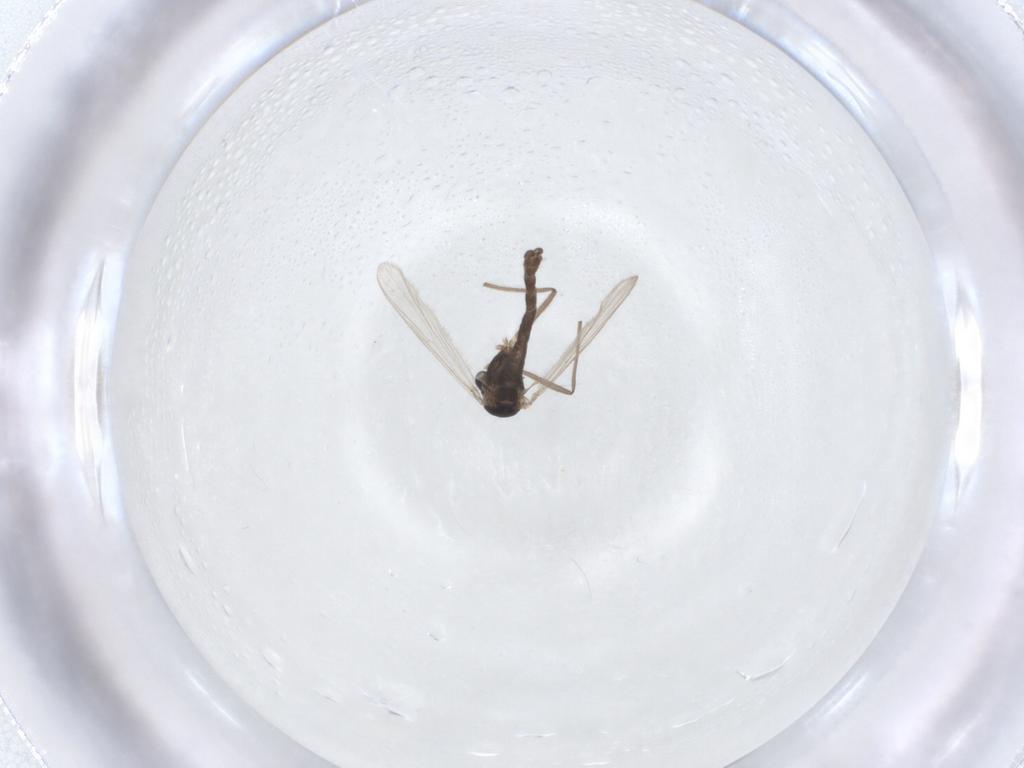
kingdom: Animalia
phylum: Arthropoda
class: Insecta
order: Diptera
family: Chironomidae
